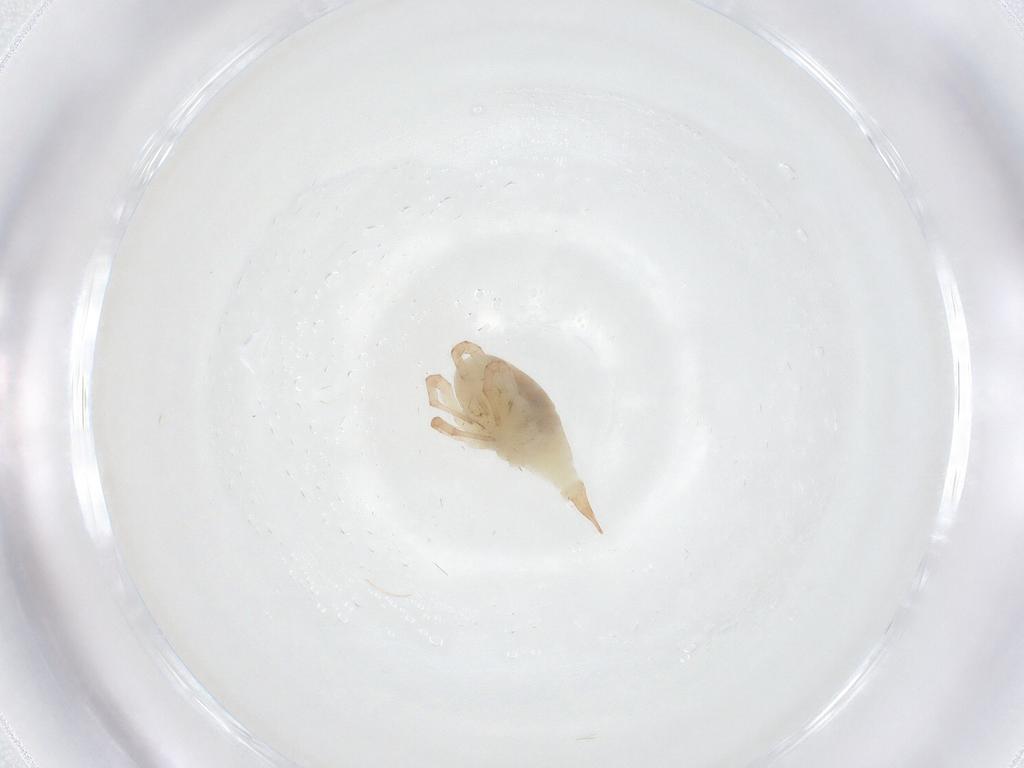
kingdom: Animalia
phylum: Arthropoda
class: Arachnida
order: Trombidiformes
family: Bdellidae
